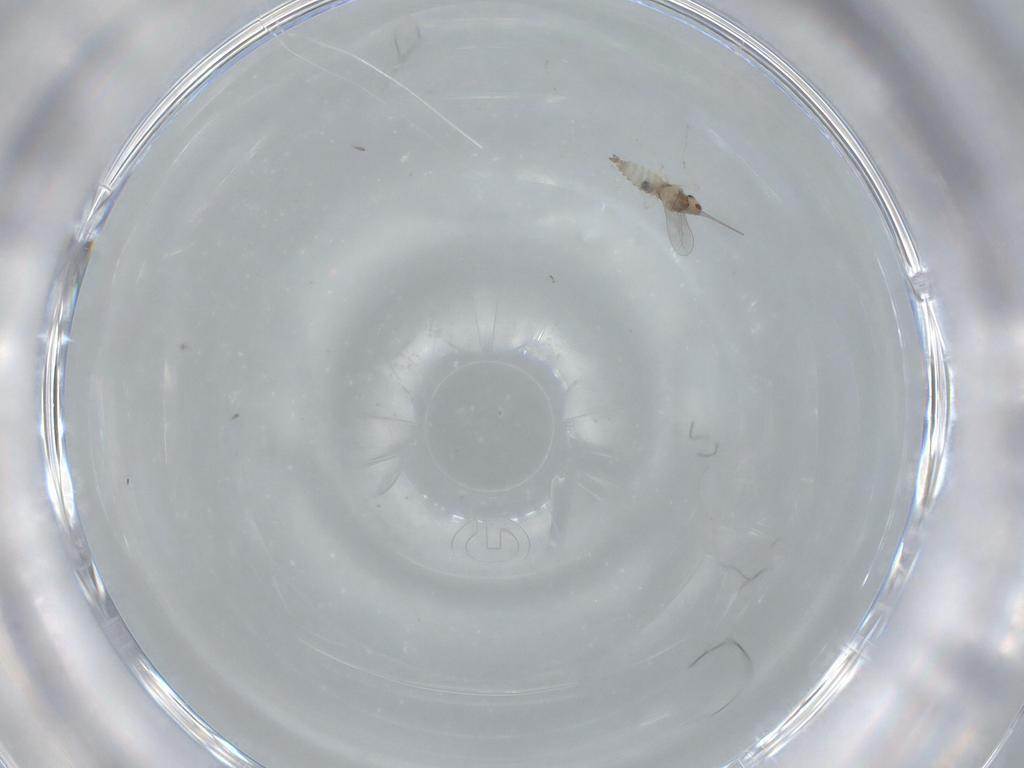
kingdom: Animalia
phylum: Arthropoda
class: Insecta
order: Diptera
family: Cecidomyiidae
